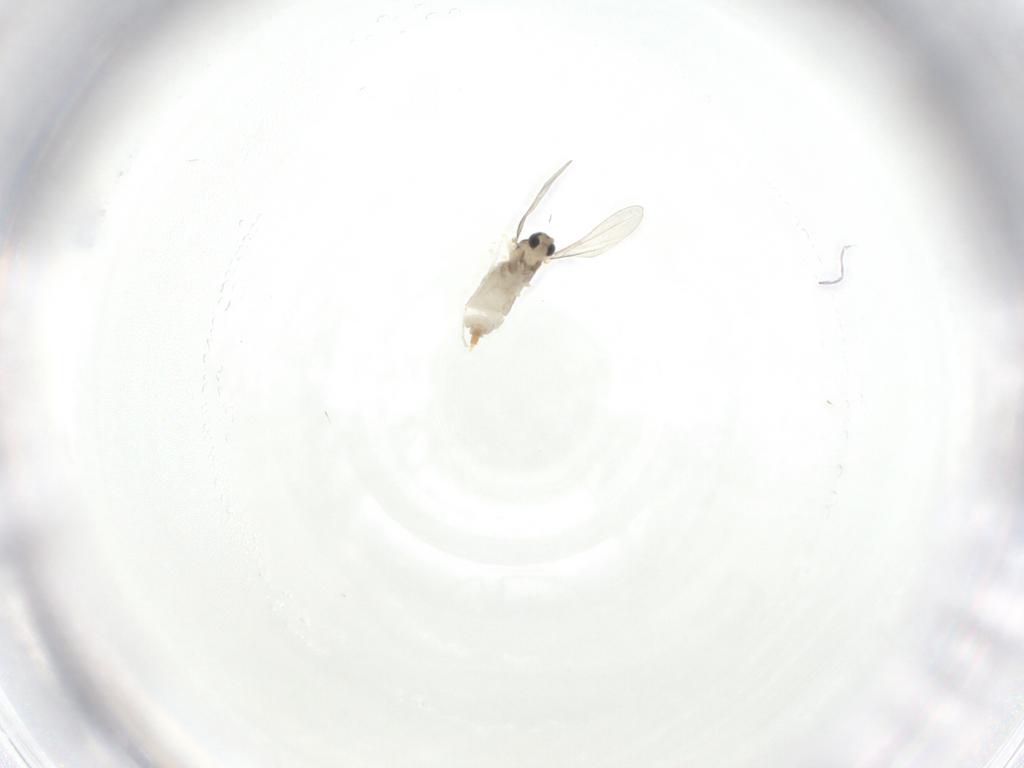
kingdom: Animalia
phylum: Arthropoda
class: Insecta
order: Diptera
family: Sphaeroceridae
